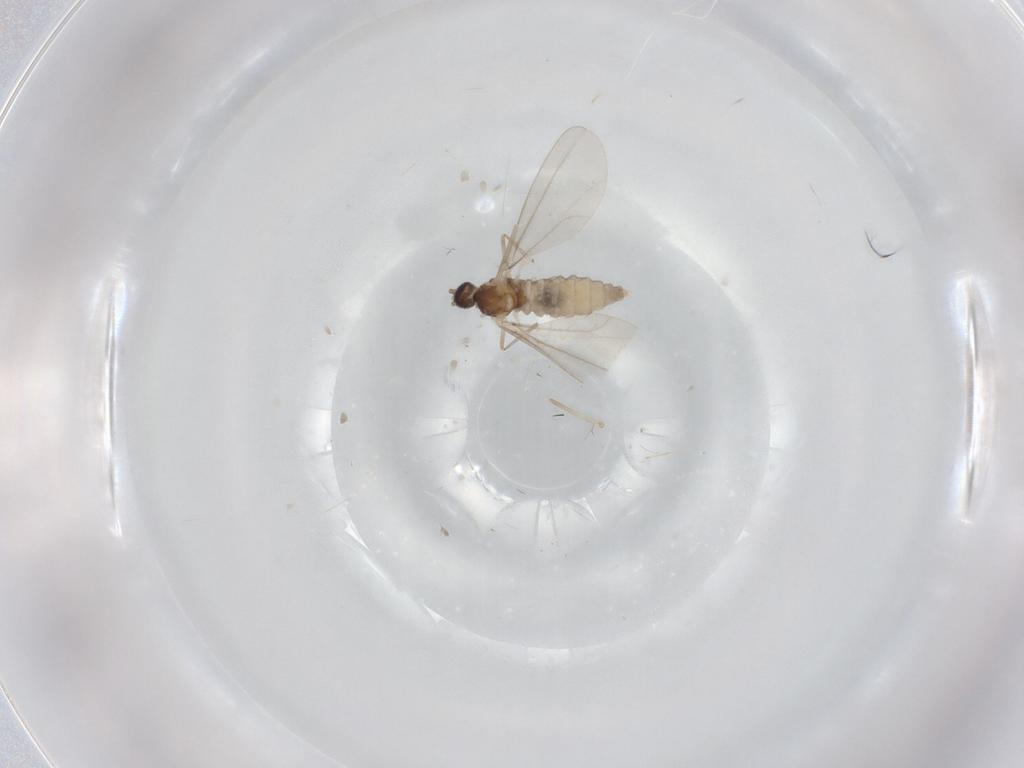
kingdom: Animalia
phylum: Arthropoda
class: Insecta
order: Diptera
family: Cecidomyiidae
